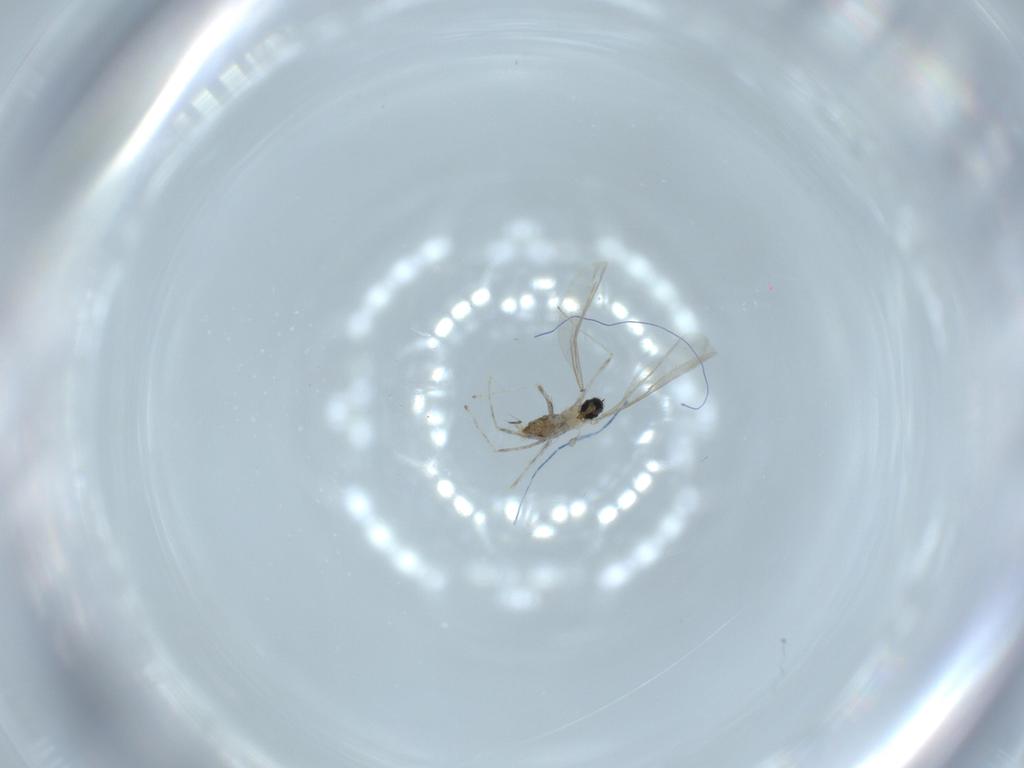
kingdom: Animalia
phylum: Arthropoda
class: Insecta
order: Diptera
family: Cecidomyiidae
